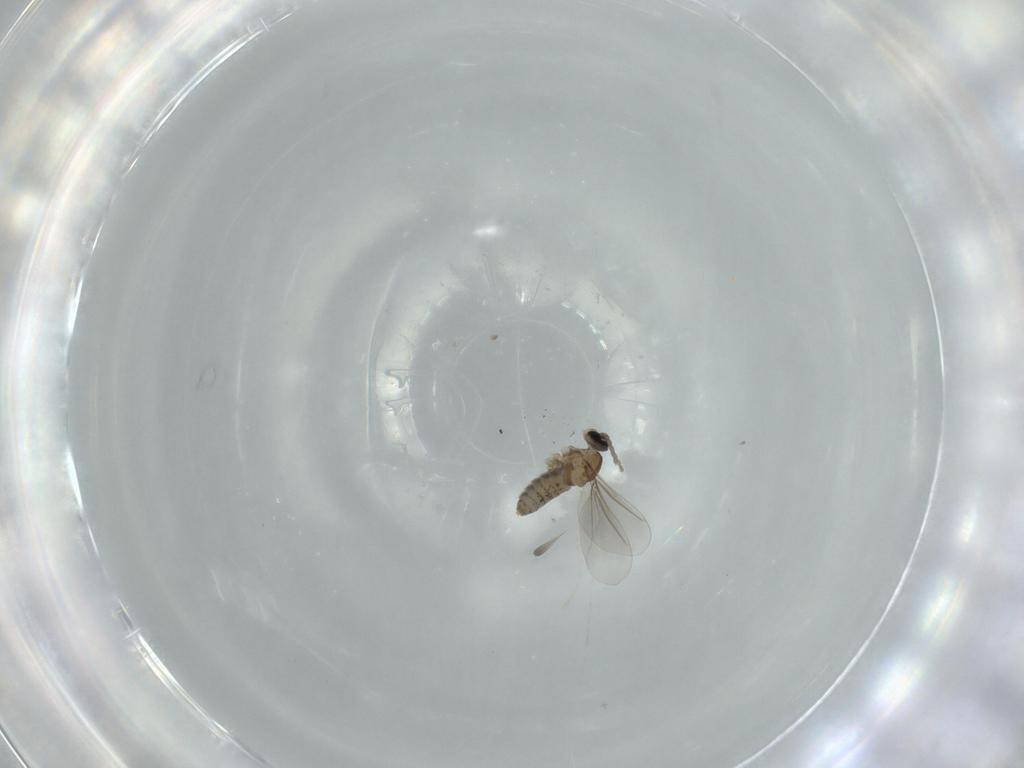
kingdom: Animalia
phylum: Arthropoda
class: Insecta
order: Diptera
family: Cecidomyiidae
